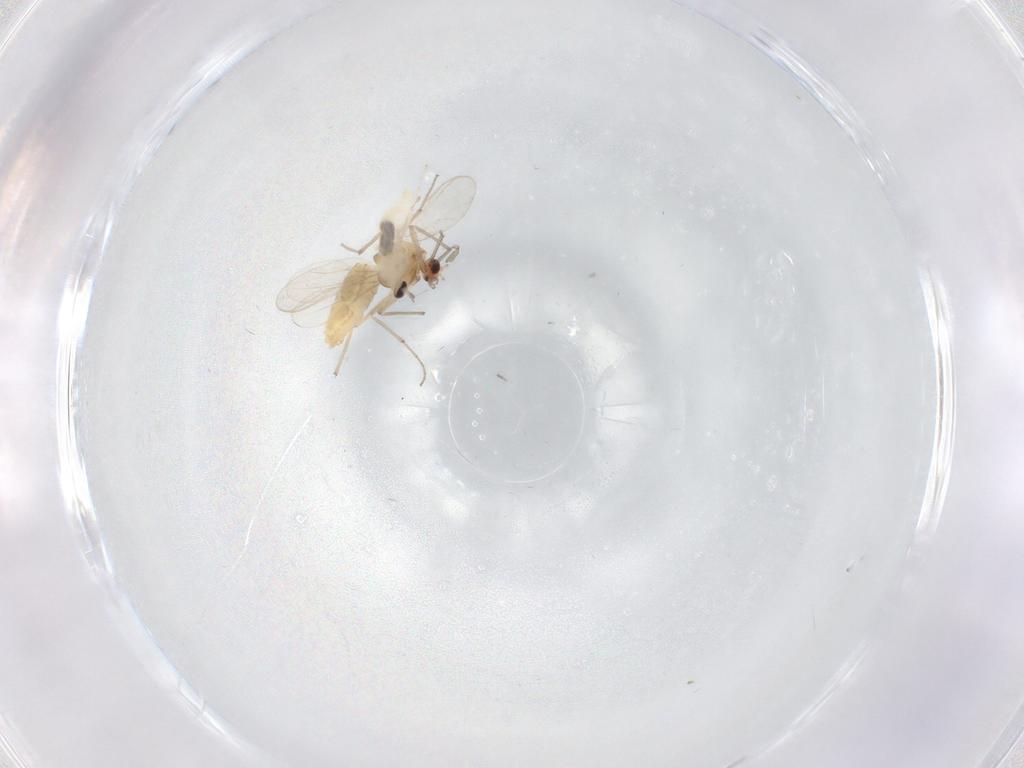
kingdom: Animalia
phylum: Arthropoda
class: Insecta
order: Diptera
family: Chironomidae
